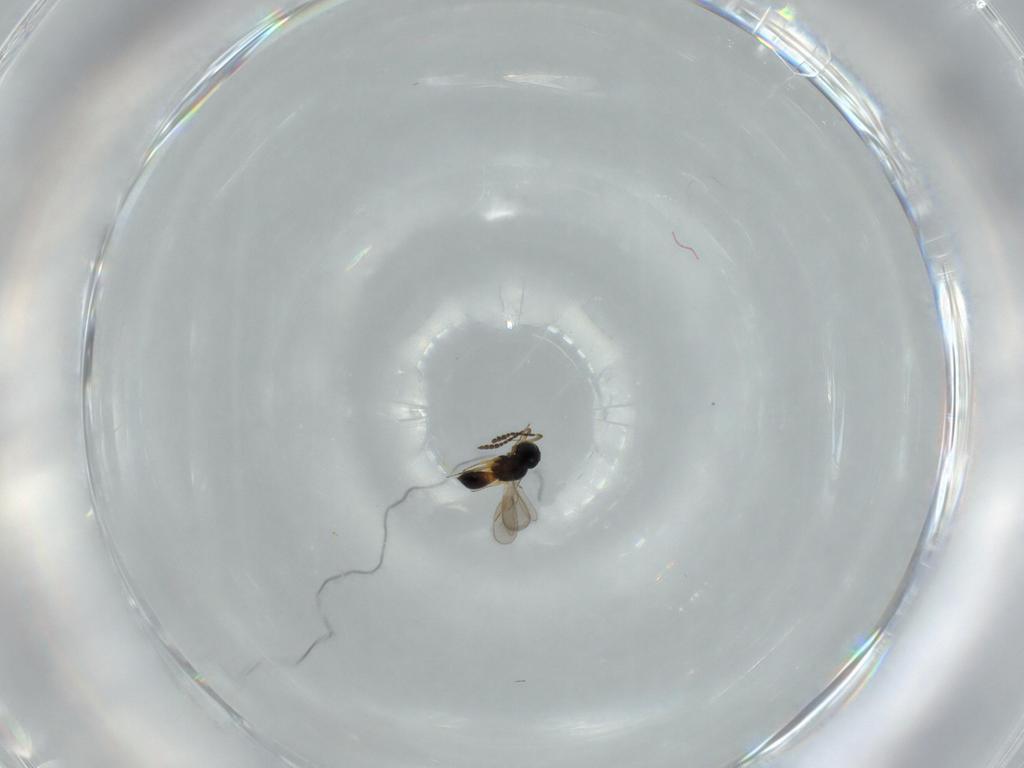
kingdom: Animalia
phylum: Arthropoda
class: Insecta
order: Hymenoptera
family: Scelionidae
